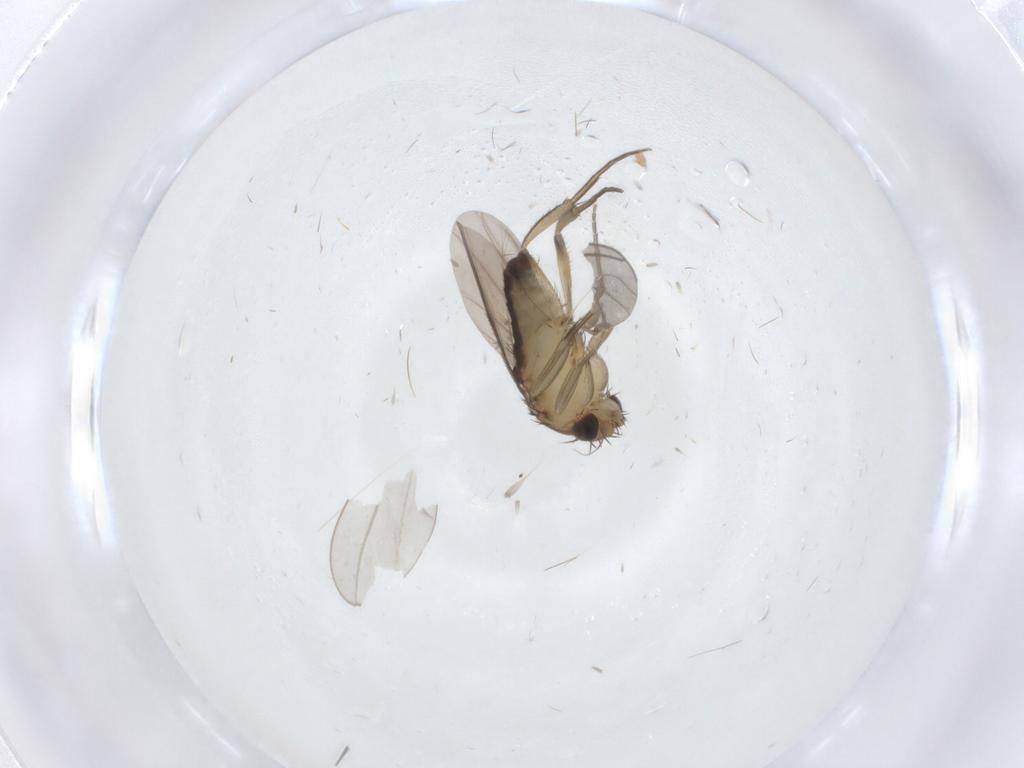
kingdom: Animalia
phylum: Arthropoda
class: Insecta
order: Diptera
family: Phoridae
